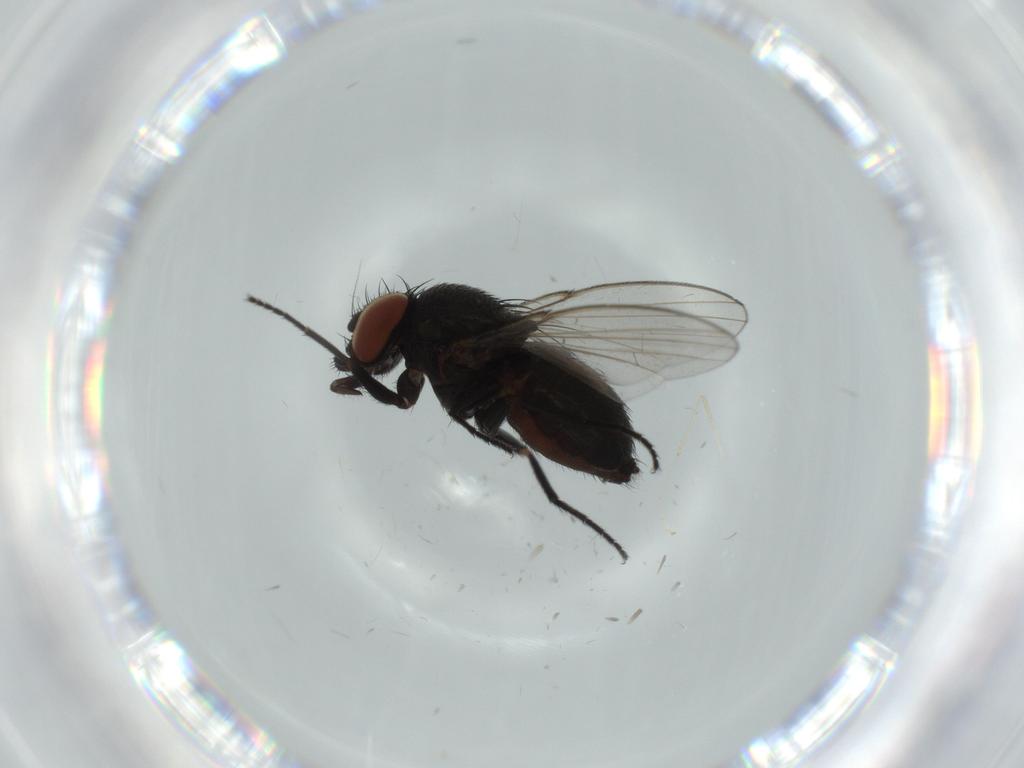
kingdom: Animalia
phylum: Arthropoda
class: Insecta
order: Diptera
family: Milichiidae
